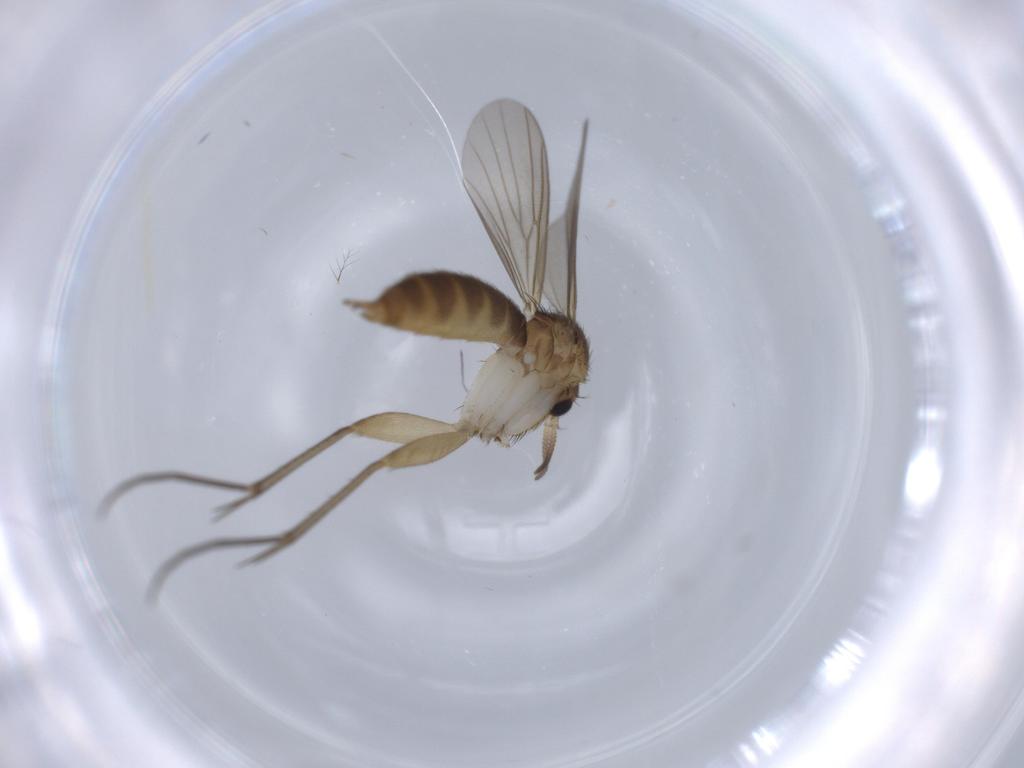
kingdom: Animalia
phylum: Arthropoda
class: Insecta
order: Diptera
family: Mycetophilidae
